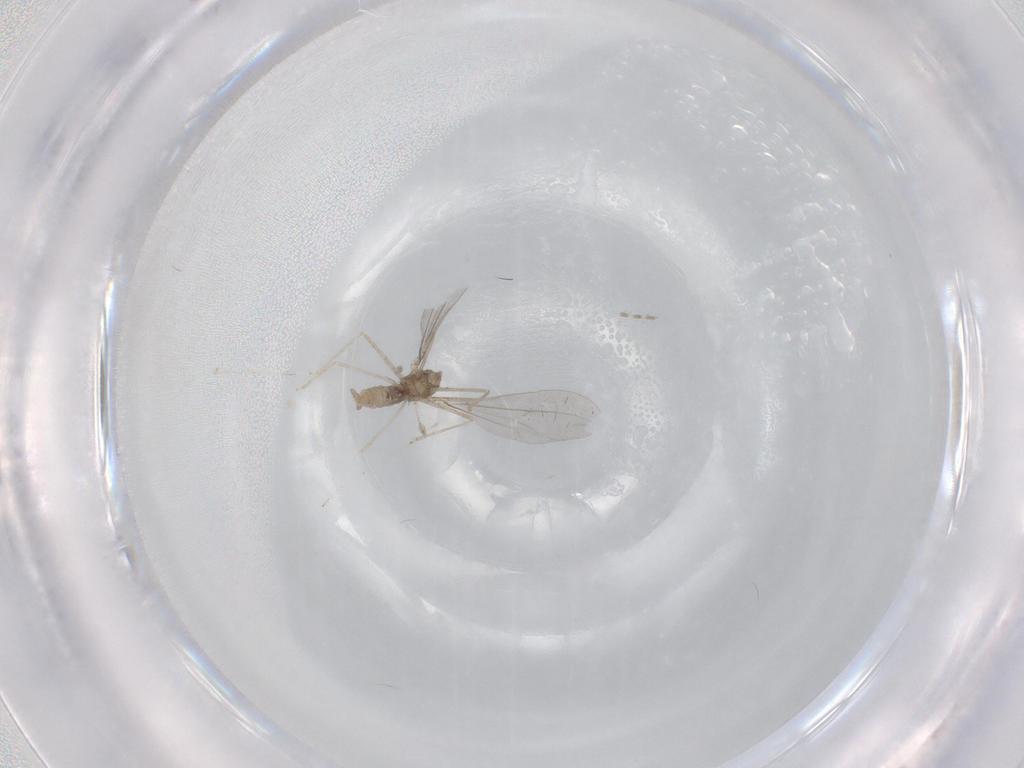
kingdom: Animalia
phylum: Arthropoda
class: Insecta
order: Diptera
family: Cecidomyiidae
